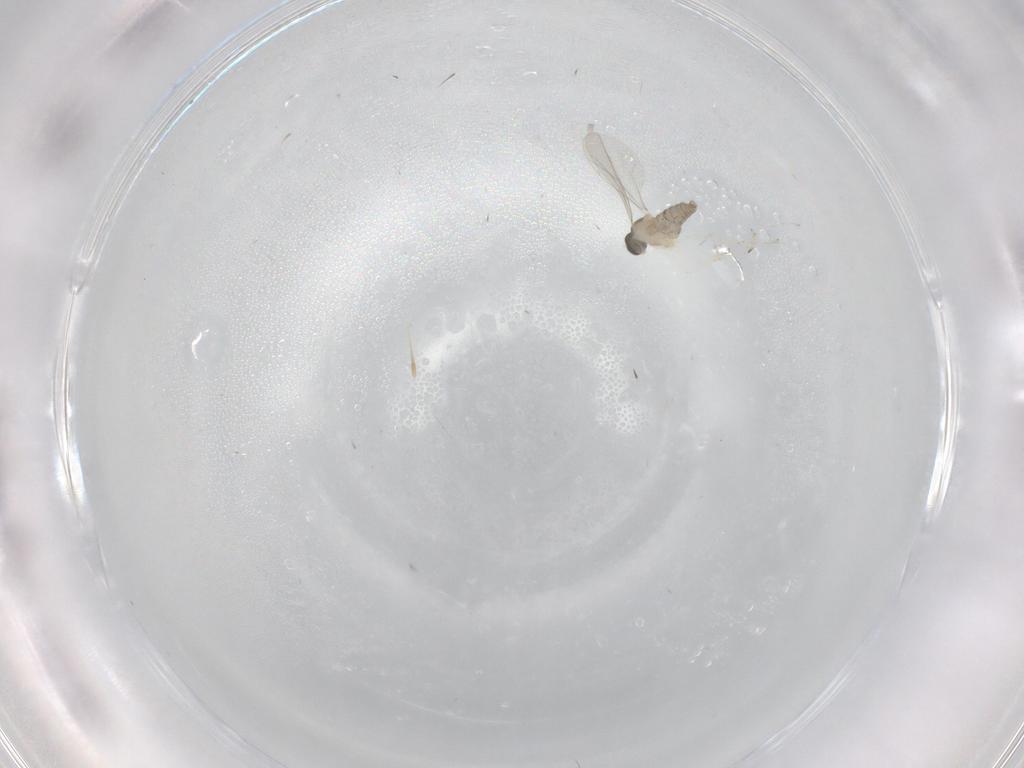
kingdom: Animalia
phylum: Arthropoda
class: Insecta
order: Diptera
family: Cecidomyiidae
